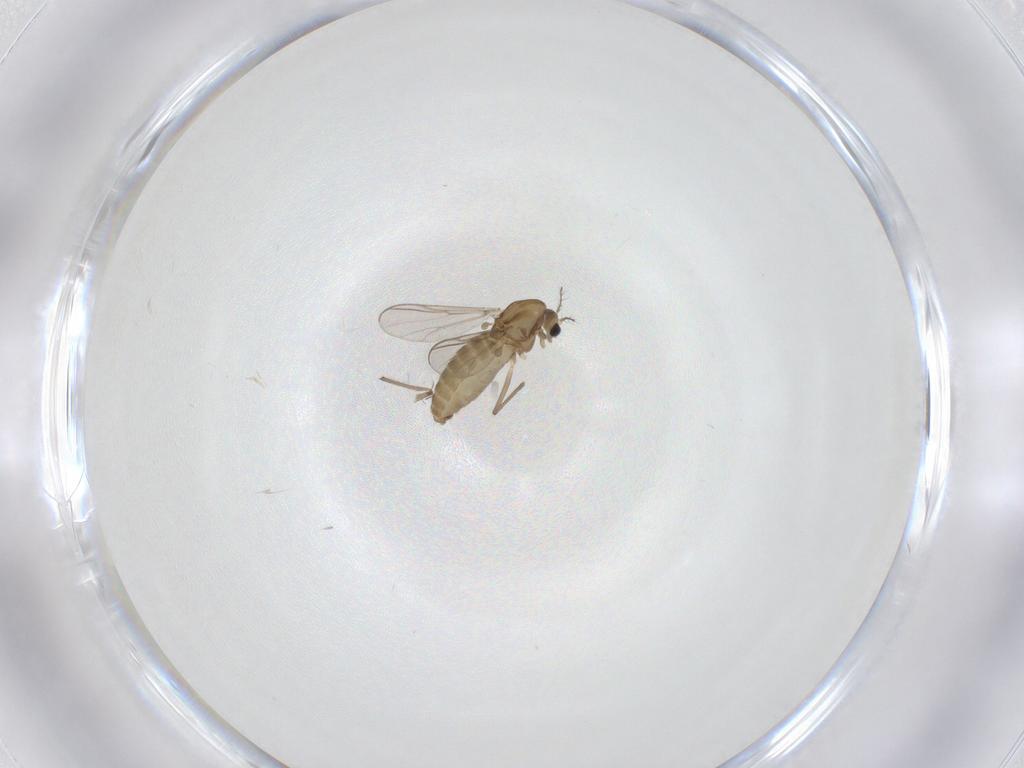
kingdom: Animalia
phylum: Arthropoda
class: Insecta
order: Diptera
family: Chironomidae
